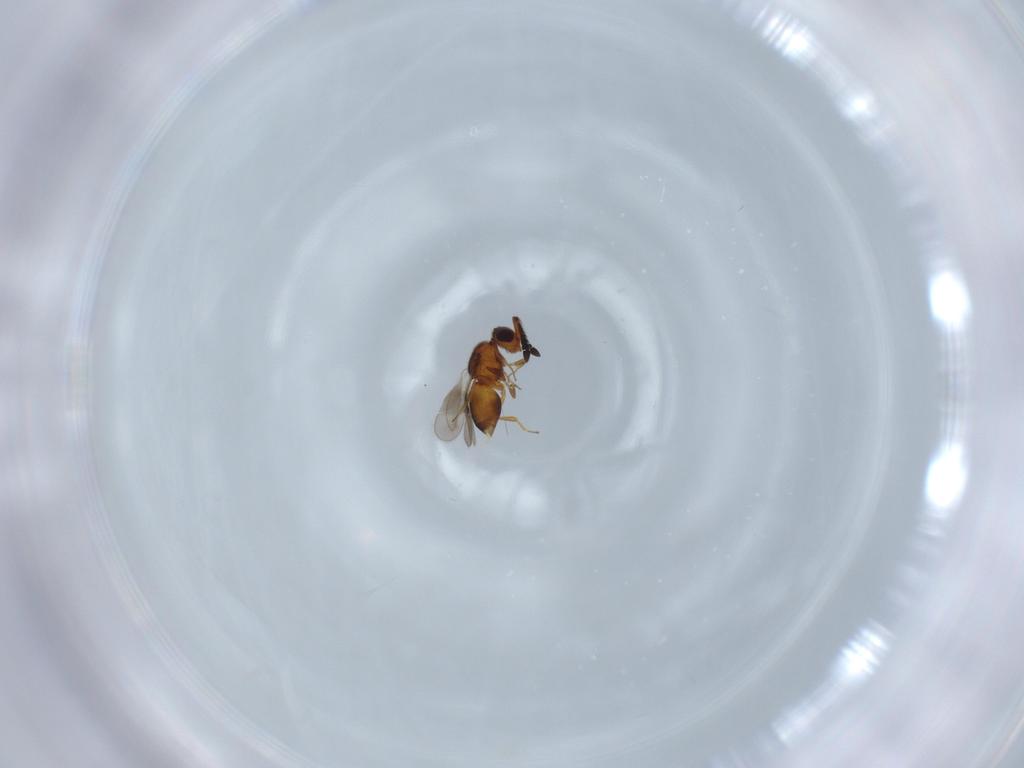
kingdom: Animalia
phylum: Arthropoda
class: Insecta
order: Hymenoptera
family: Ceraphronidae
